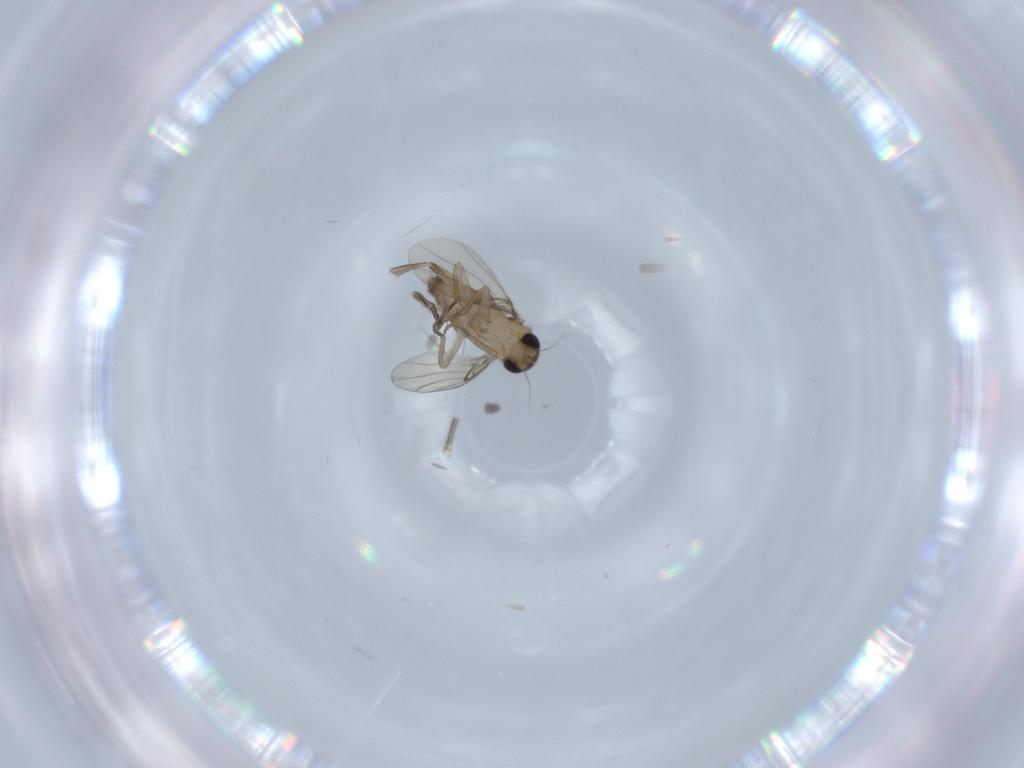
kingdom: Animalia
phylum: Arthropoda
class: Insecta
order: Diptera
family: Phoridae
